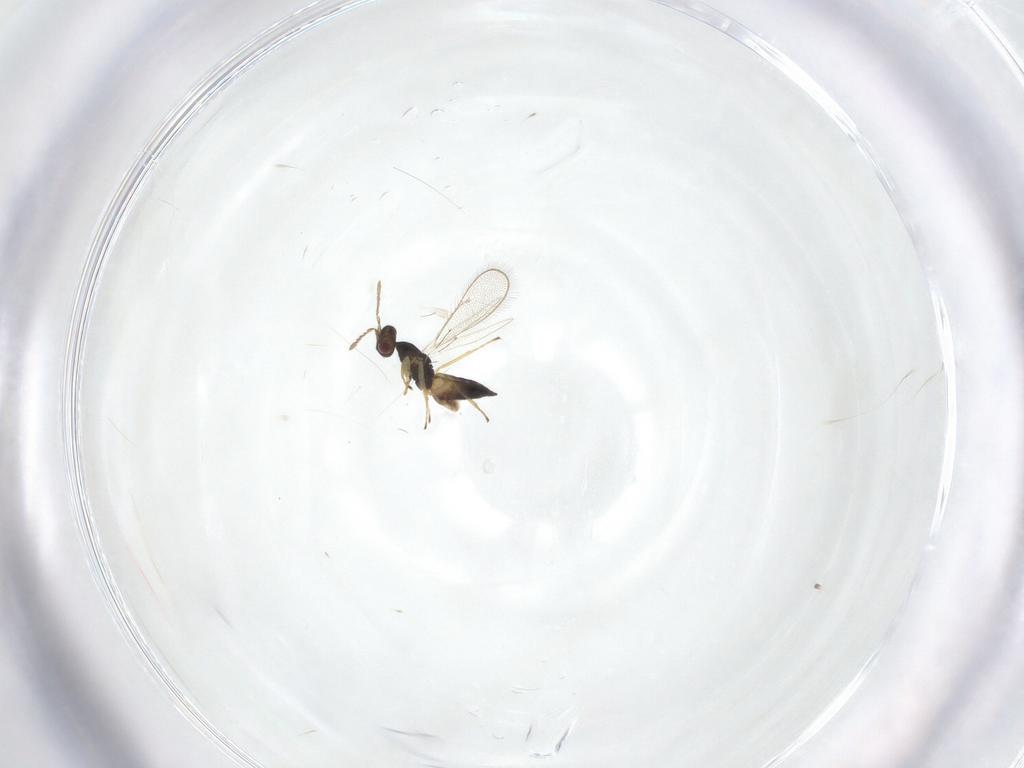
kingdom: Animalia
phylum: Arthropoda
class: Insecta
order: Hymenoptera
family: Eulophidae
